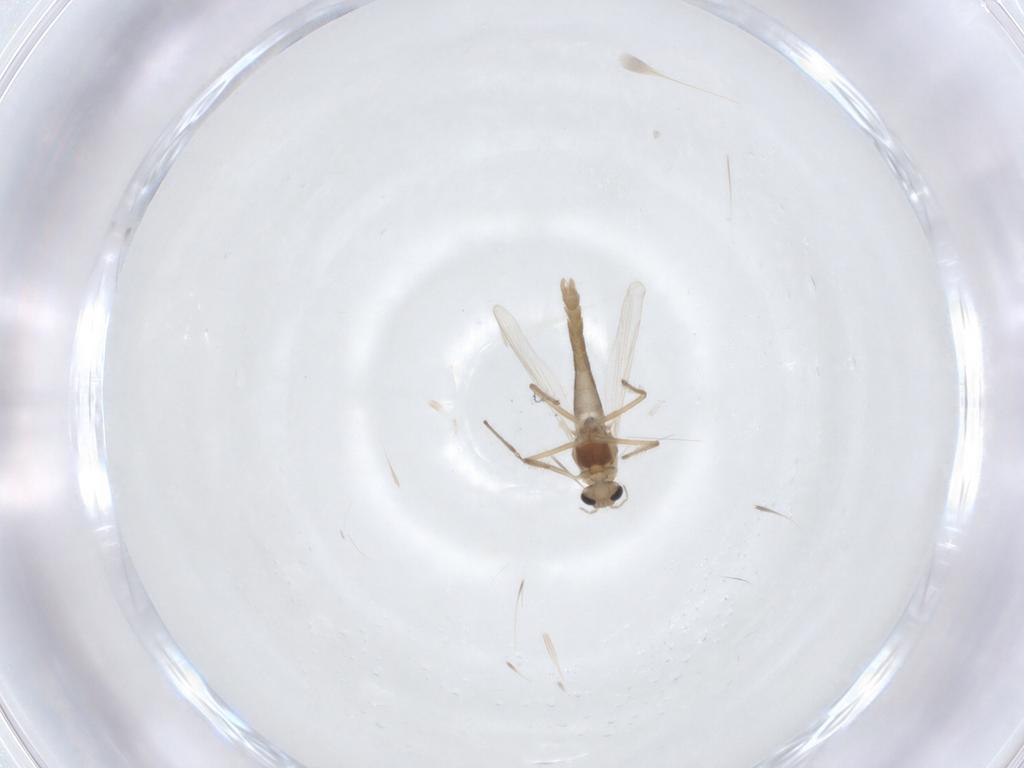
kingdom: Animalia
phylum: Arthropoda
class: Insecta
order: Diptera
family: Chironomidae
